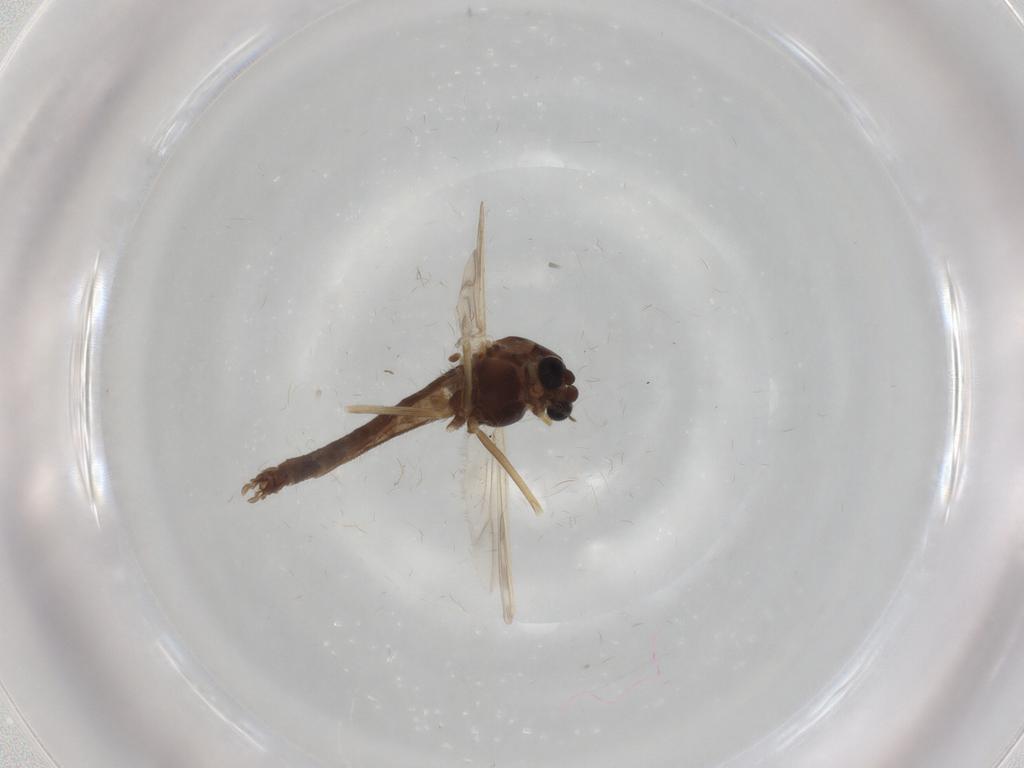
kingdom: Animalia
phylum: Arthropoda
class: Insecta
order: Diptera
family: Chironomidae
